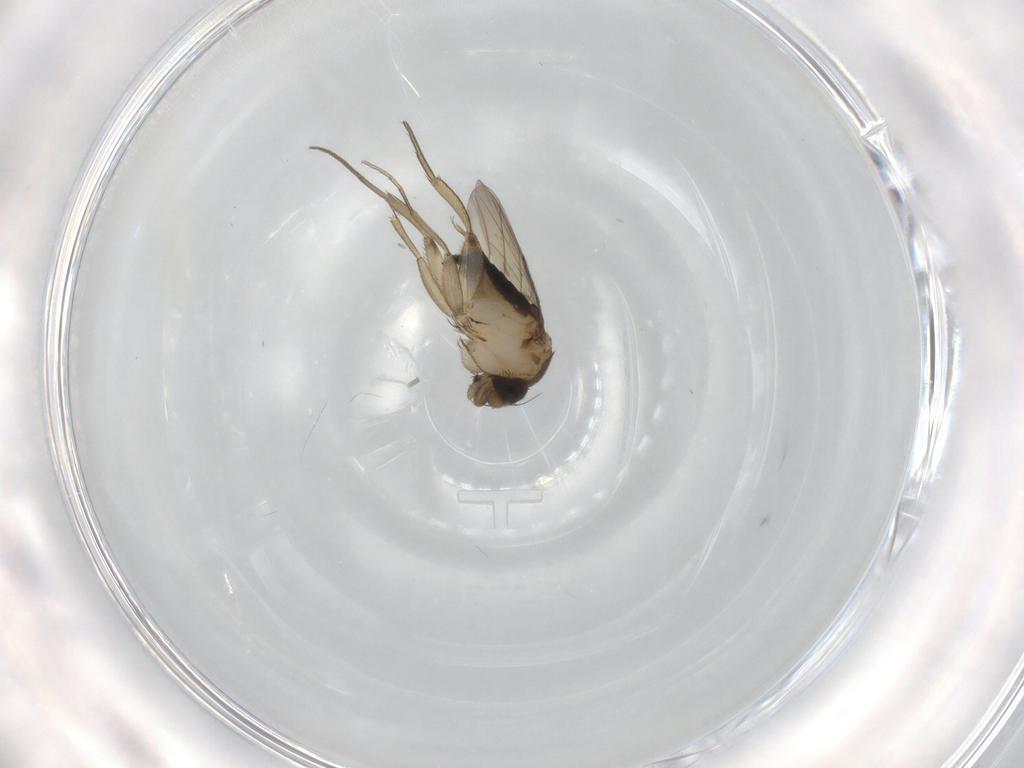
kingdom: Animalia
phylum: Arthropoda
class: Insecta
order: Diptera
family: Phoridae
